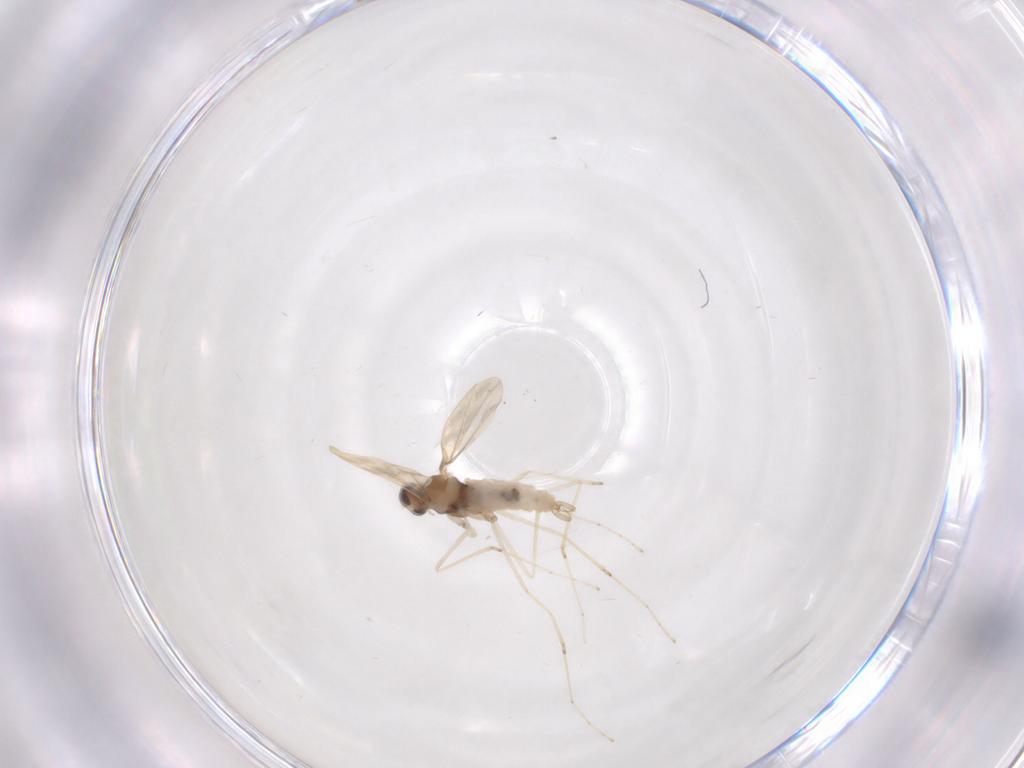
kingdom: Animalia
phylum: Arthropoda
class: Insecta
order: Diptera
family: Cecidomyiidae
